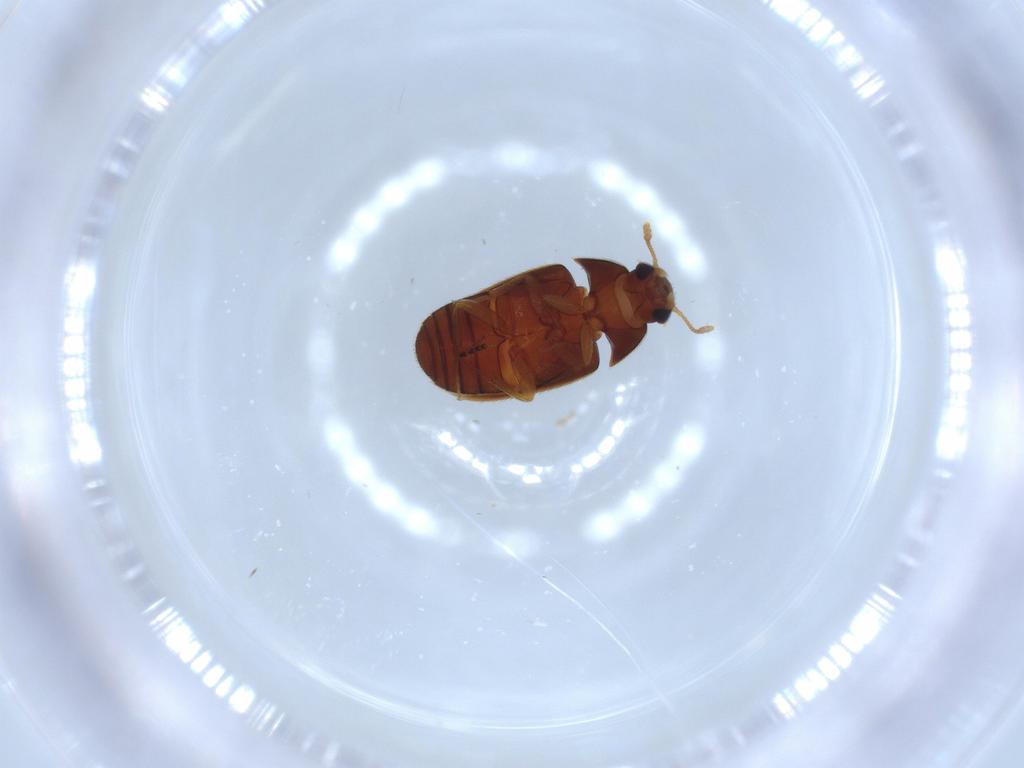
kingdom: Animalia
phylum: Arthropoda
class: Insecta
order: Coleoptera
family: Mycetophagidae
